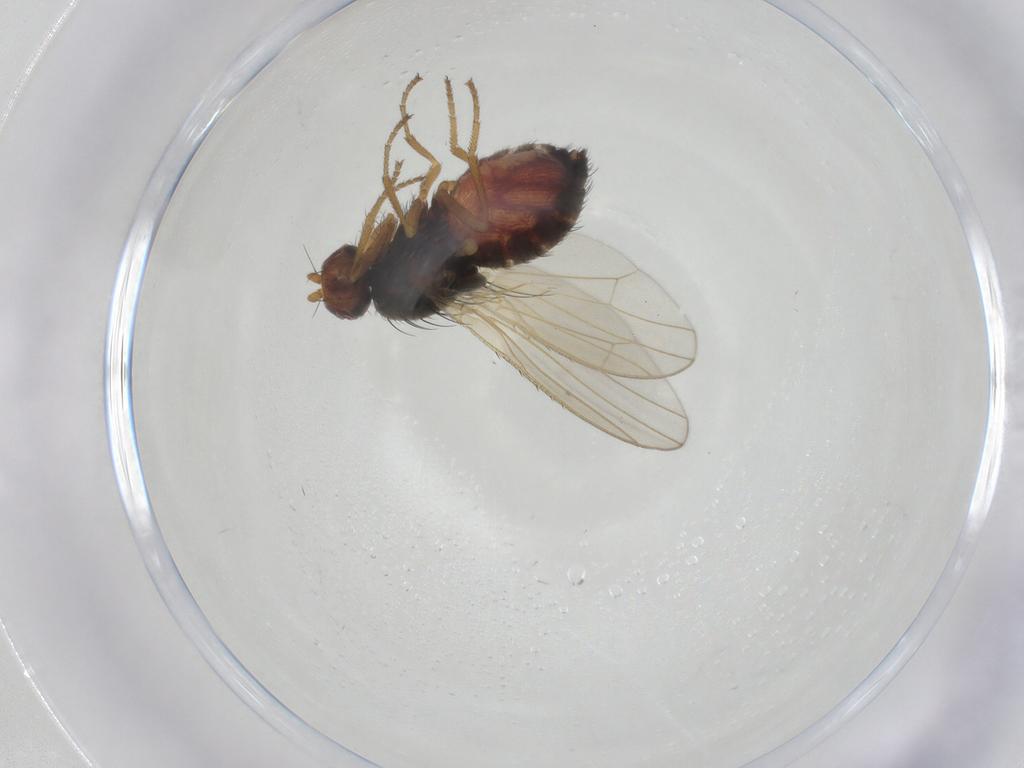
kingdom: Animalia
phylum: Arthropoda
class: Insecta
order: Diptera
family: Heleomyzidae
